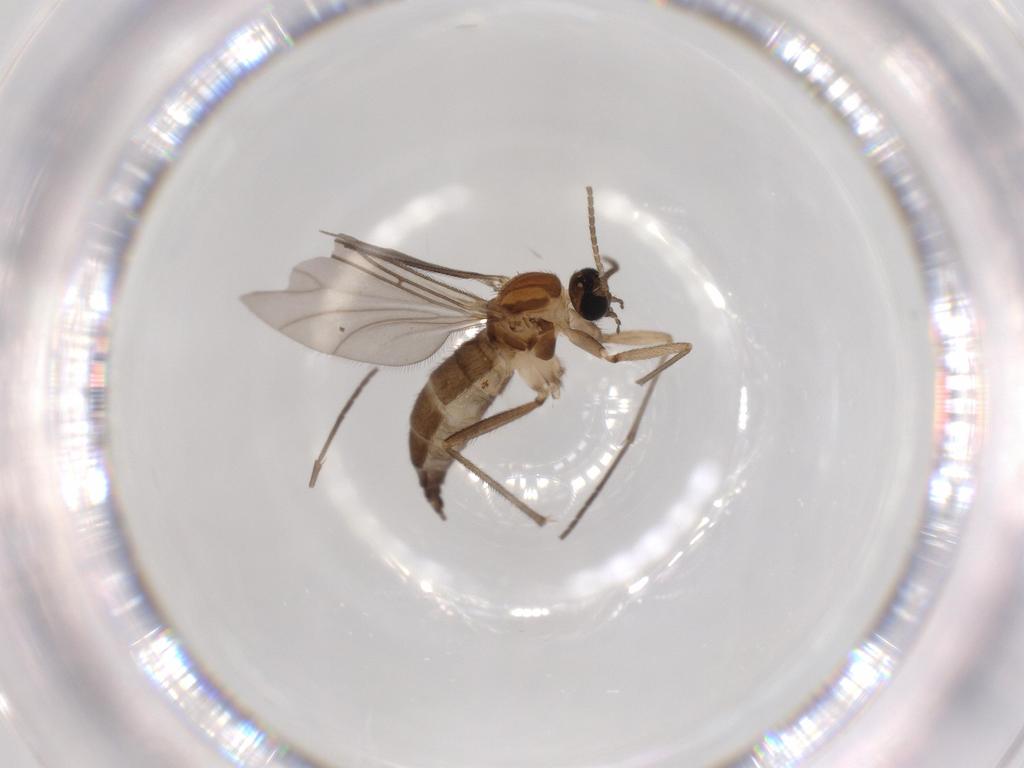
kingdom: Animalia
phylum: Arthropoda
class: Insecta
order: Diptera
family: Sciaridae
